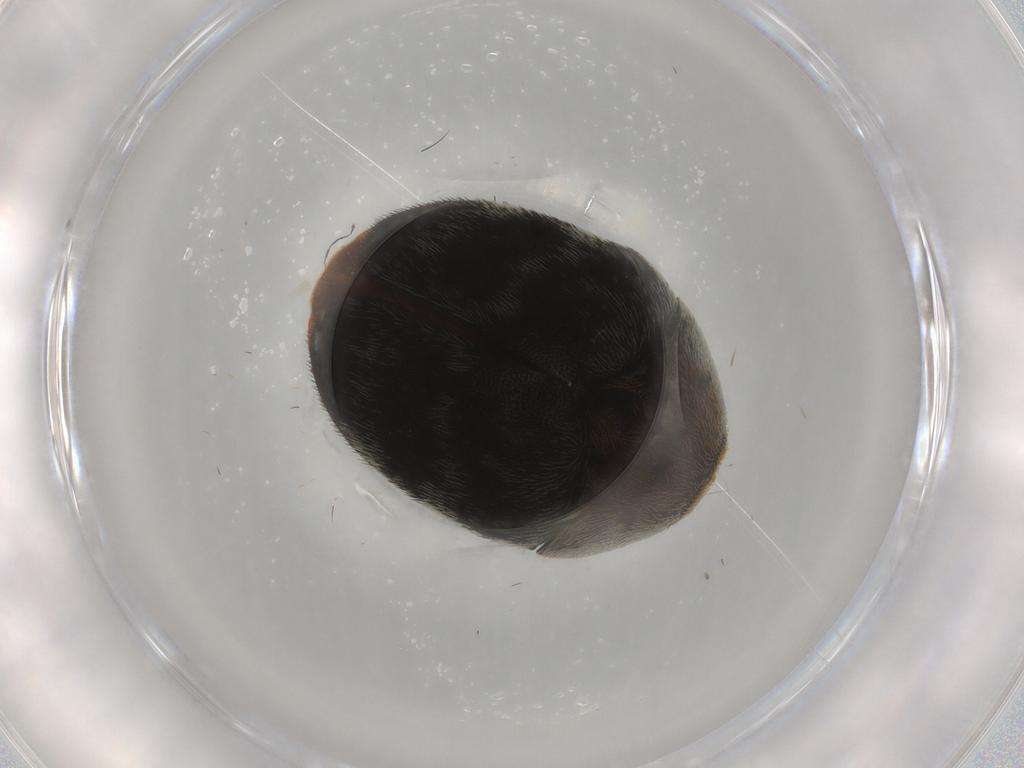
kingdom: Animalia
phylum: Arthropoda
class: Insecta
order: Coleoptera
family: Dermestidae
